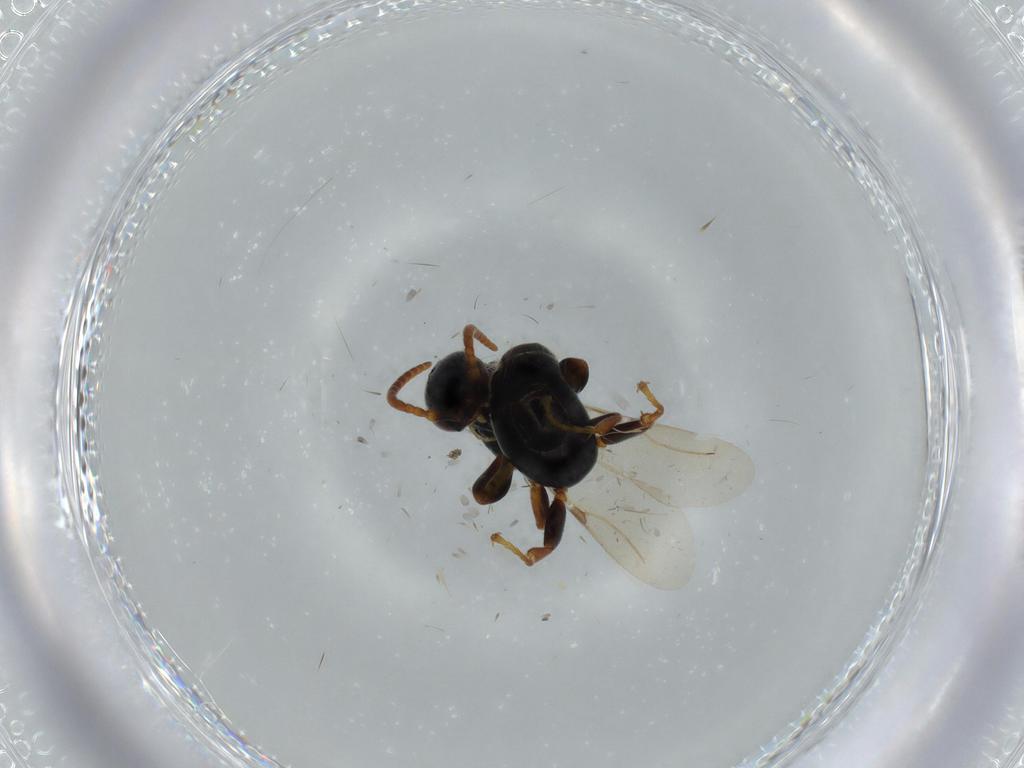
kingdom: Animalia
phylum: Arthropoda
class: Insecta
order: Hymenoptera
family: Bethylidae
